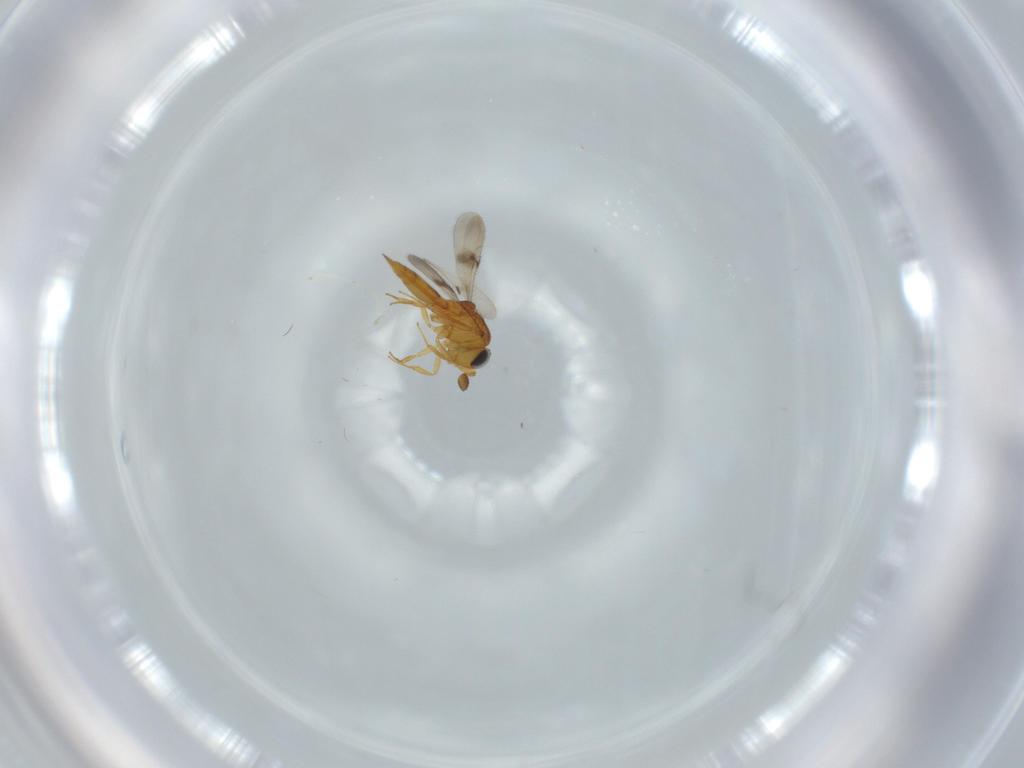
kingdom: Animalia
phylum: Arthropoda
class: Insecta
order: Hymenoptera
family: Scelionidae
